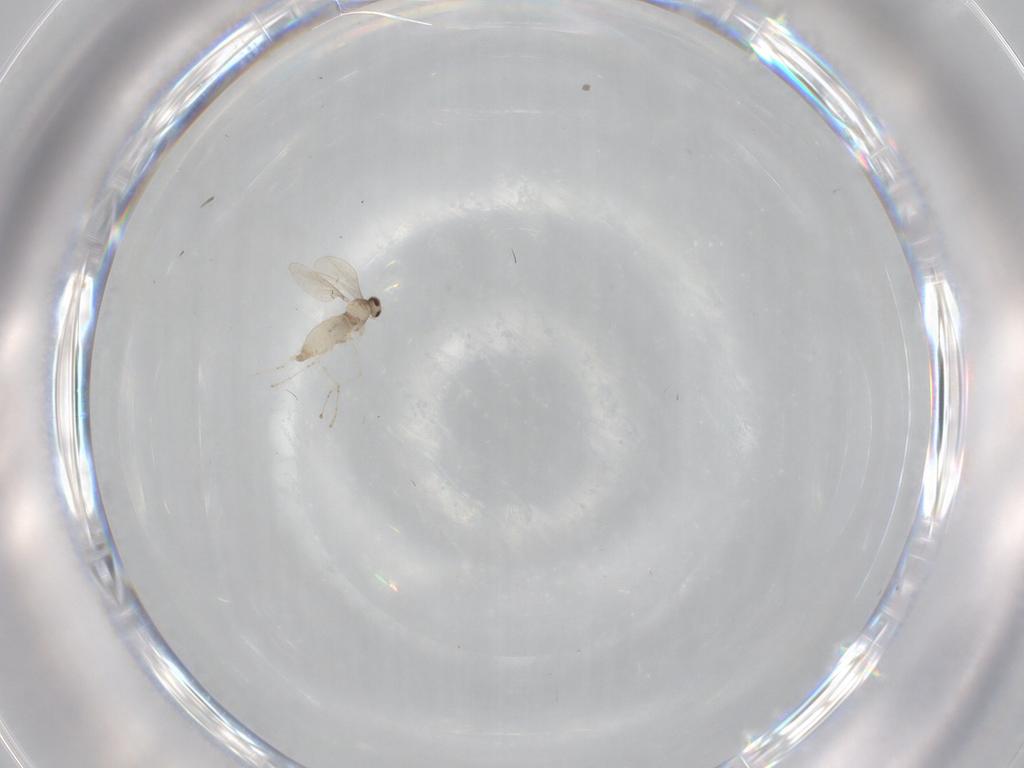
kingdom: Animalia
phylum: Arthropoda
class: Insecta
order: Diptera
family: Cecidomyiidae
